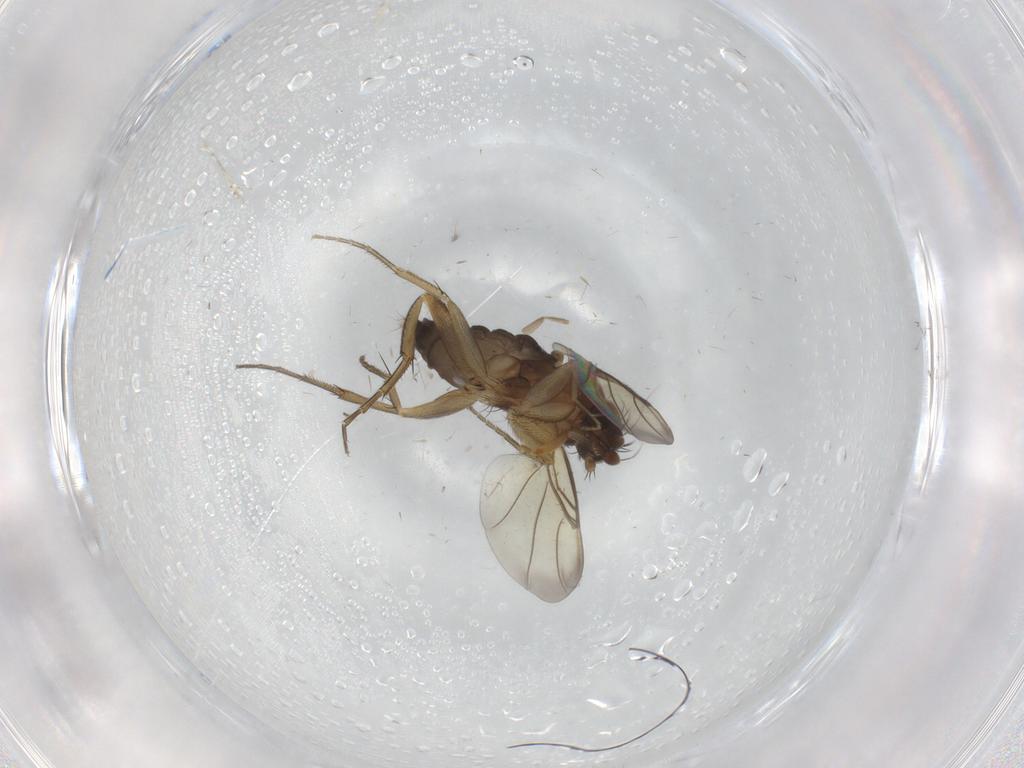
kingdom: Animalia
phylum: Arthropoda
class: Insecta
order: Diptera
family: Phoridae
